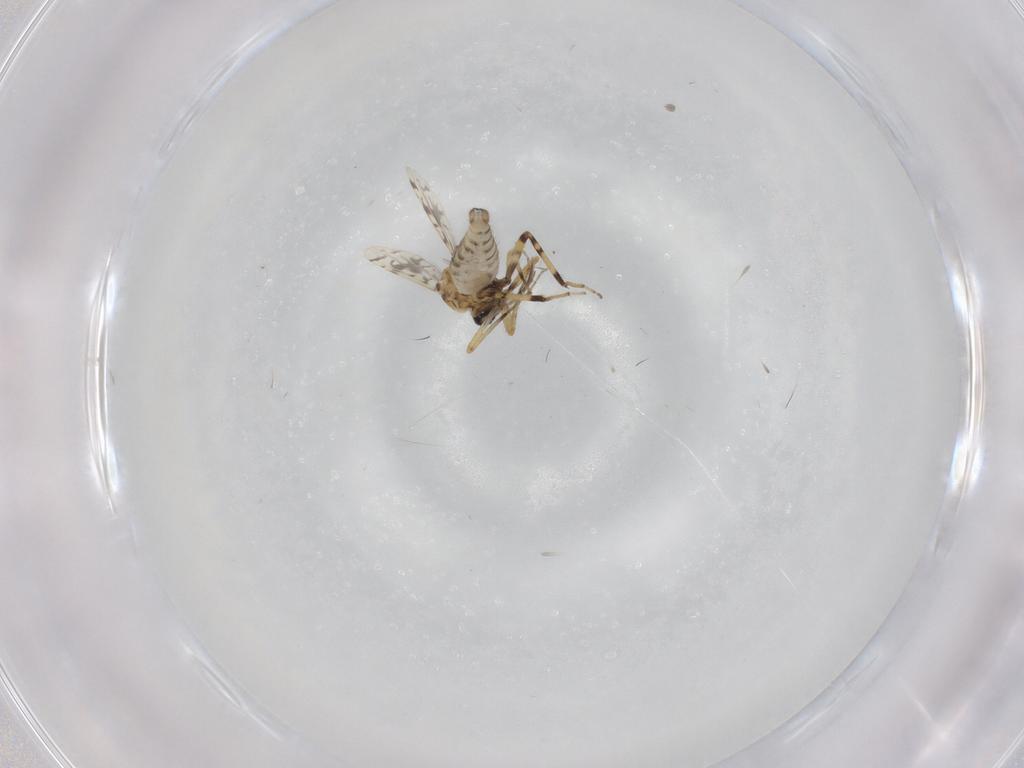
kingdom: Animalia
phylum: Arthropoda
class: Insecta
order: Diptera
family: Ceratopogonidae
